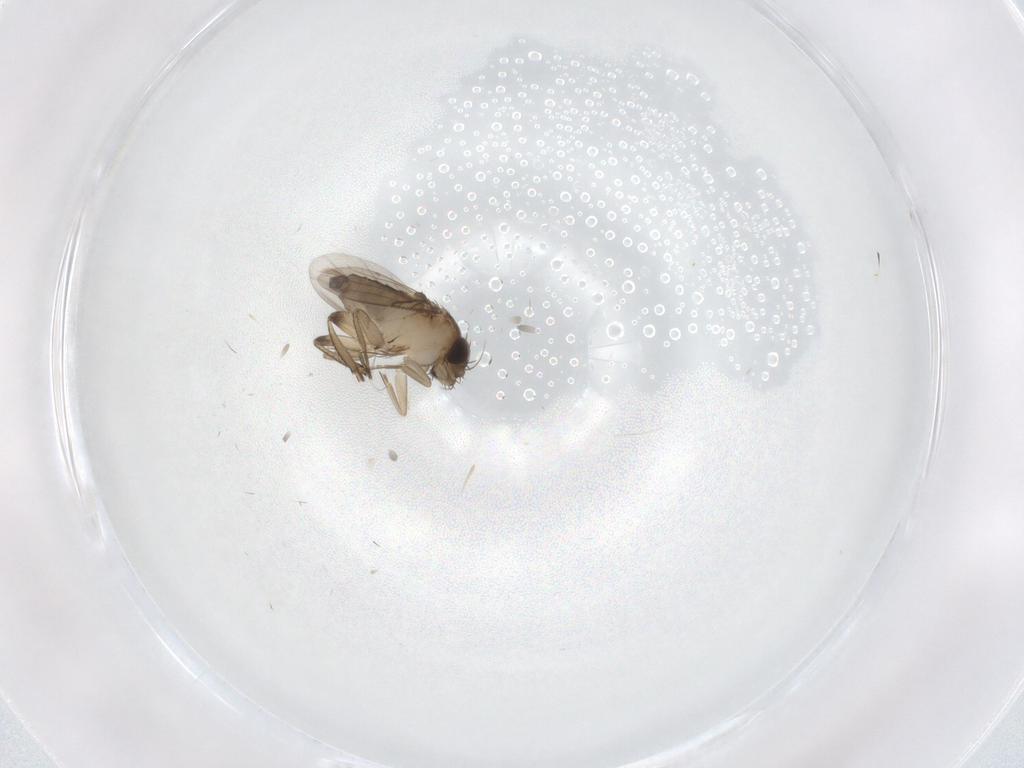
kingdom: Animalia
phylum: Arthropoda
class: Insecta
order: Diptera
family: Phoridae
